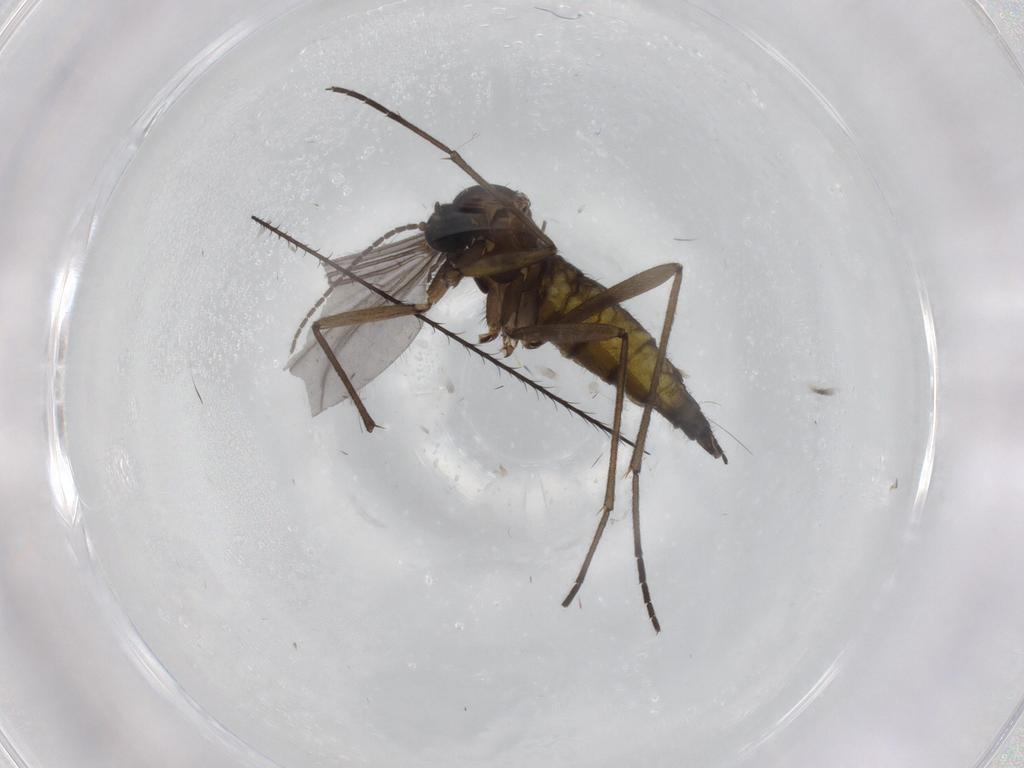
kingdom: Animalia
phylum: Arthropoda
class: Insecta
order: Diptera
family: Sciaridae
